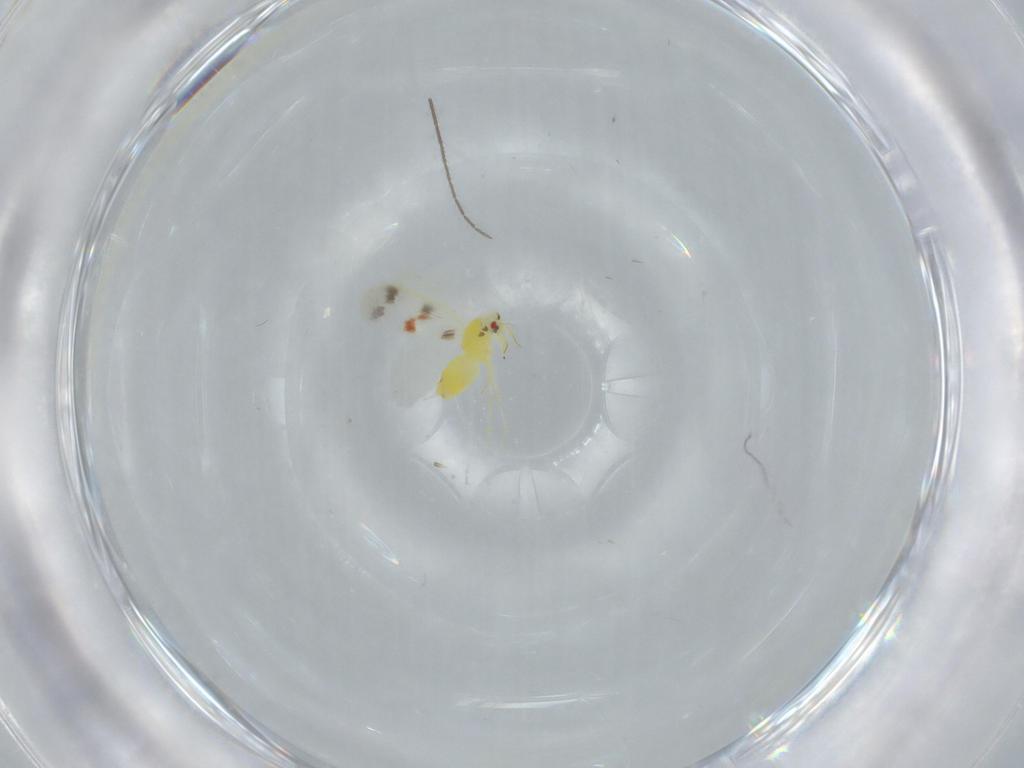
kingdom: Animalia
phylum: Arthropoda
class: Insecta
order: Hemiptera
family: Aleyrodidae
